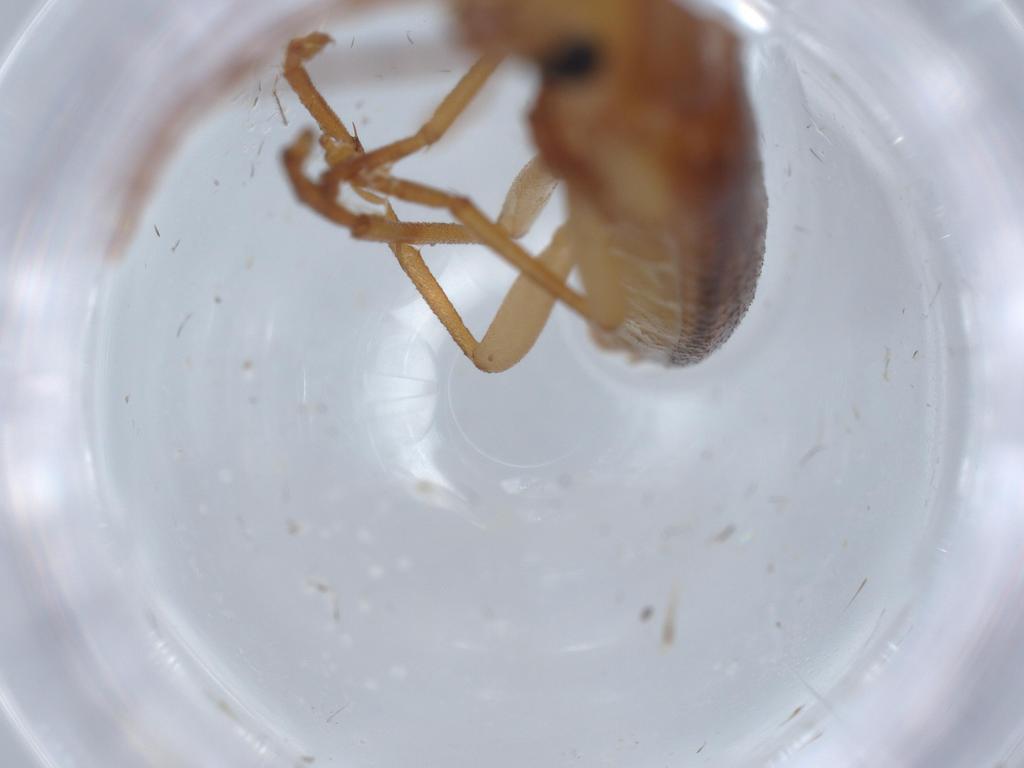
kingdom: Animalia
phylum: Arthropoda
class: Insecta
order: Coleoptera
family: Oedemeridae
